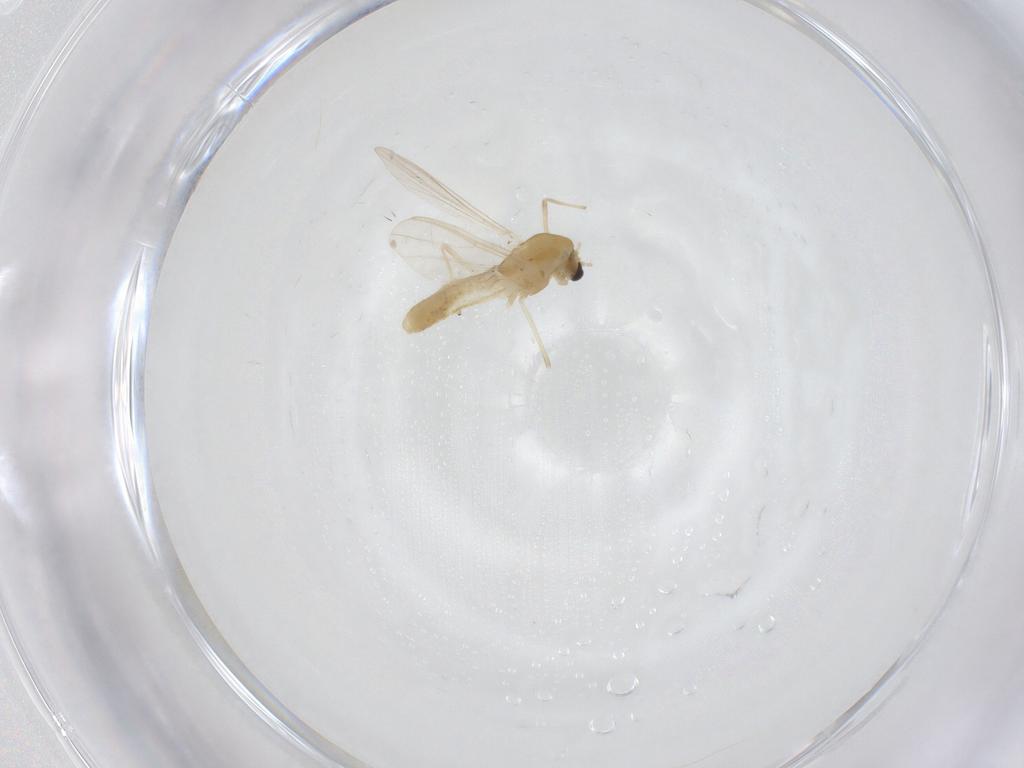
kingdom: Animalia
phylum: Arthropoda
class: Insecta
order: Diptera
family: Chironomidae
